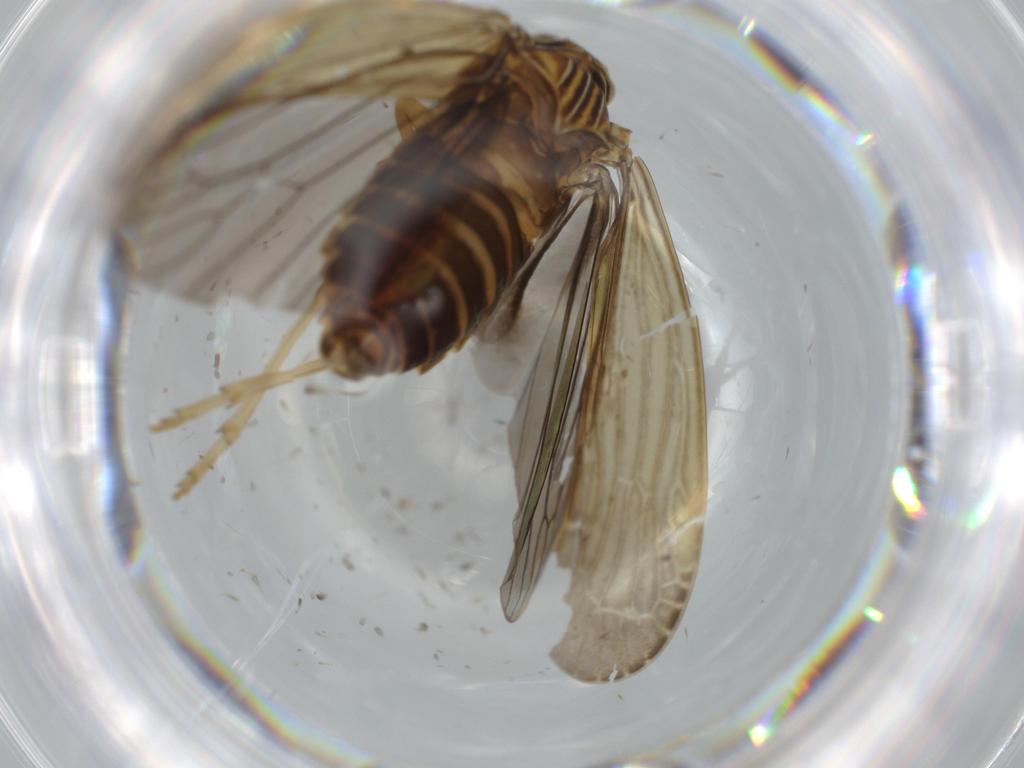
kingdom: Animalia
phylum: Arthropoda
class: Insecta
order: Hemiptera
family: Achilidae
